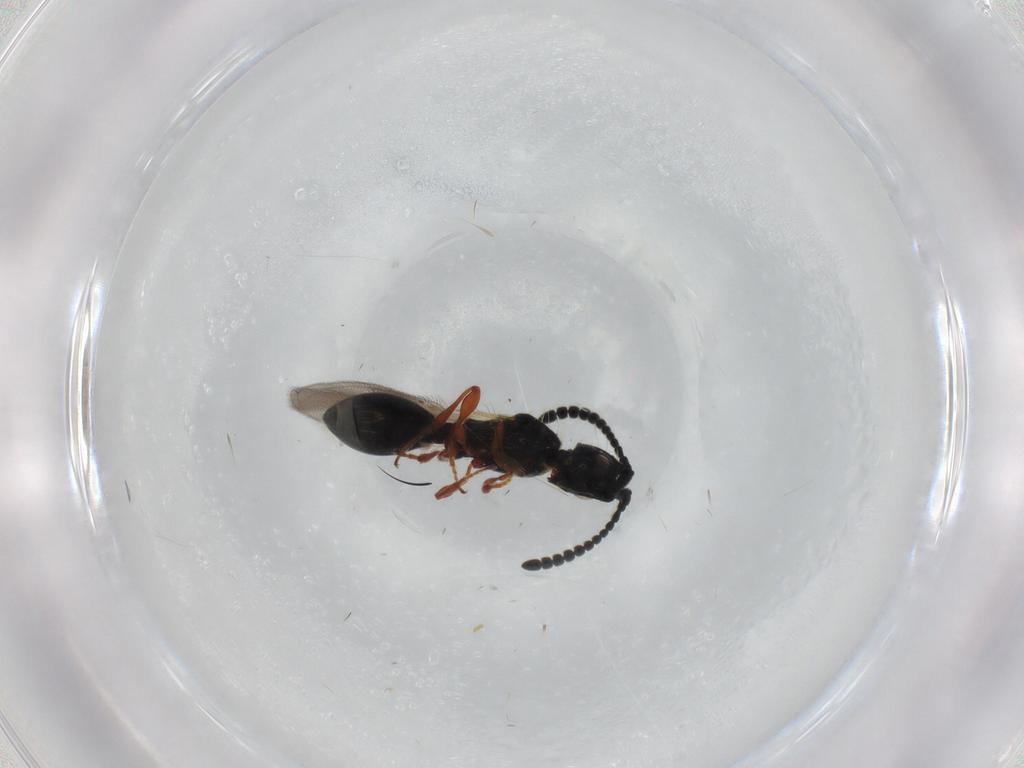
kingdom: Animalia
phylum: Arthropoda
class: Insecta
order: Hymenoptera
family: Diapriidae
